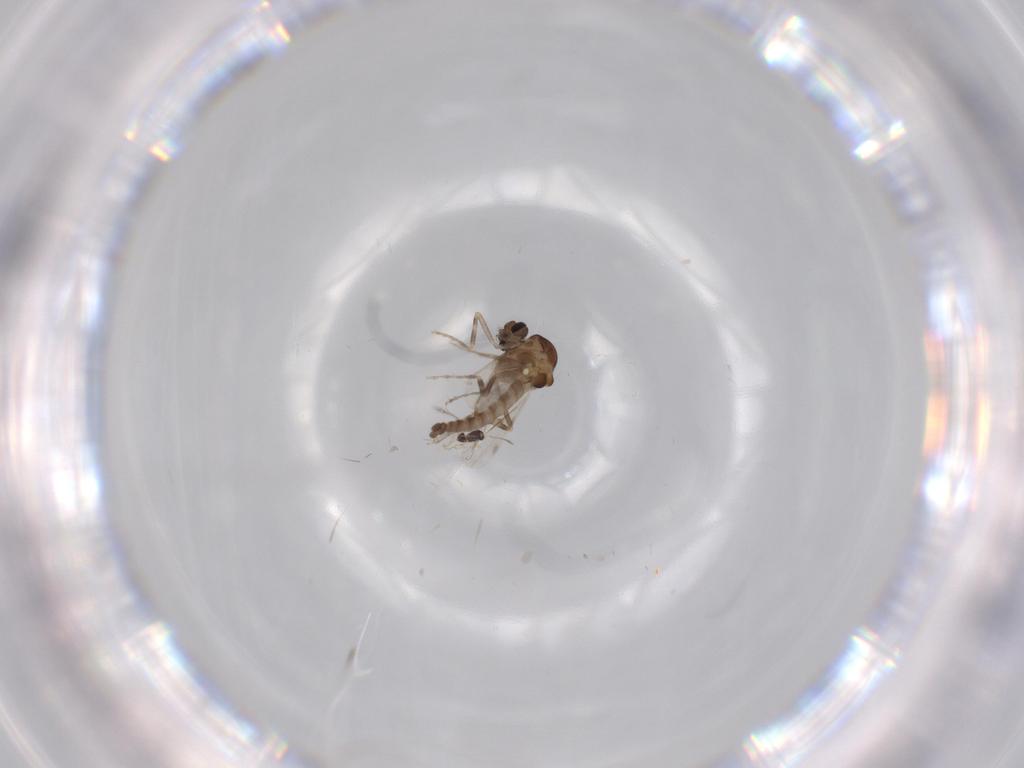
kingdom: Animalia
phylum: Arthropoda
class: Insecta
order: Diptera
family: Ceratopogonidae
